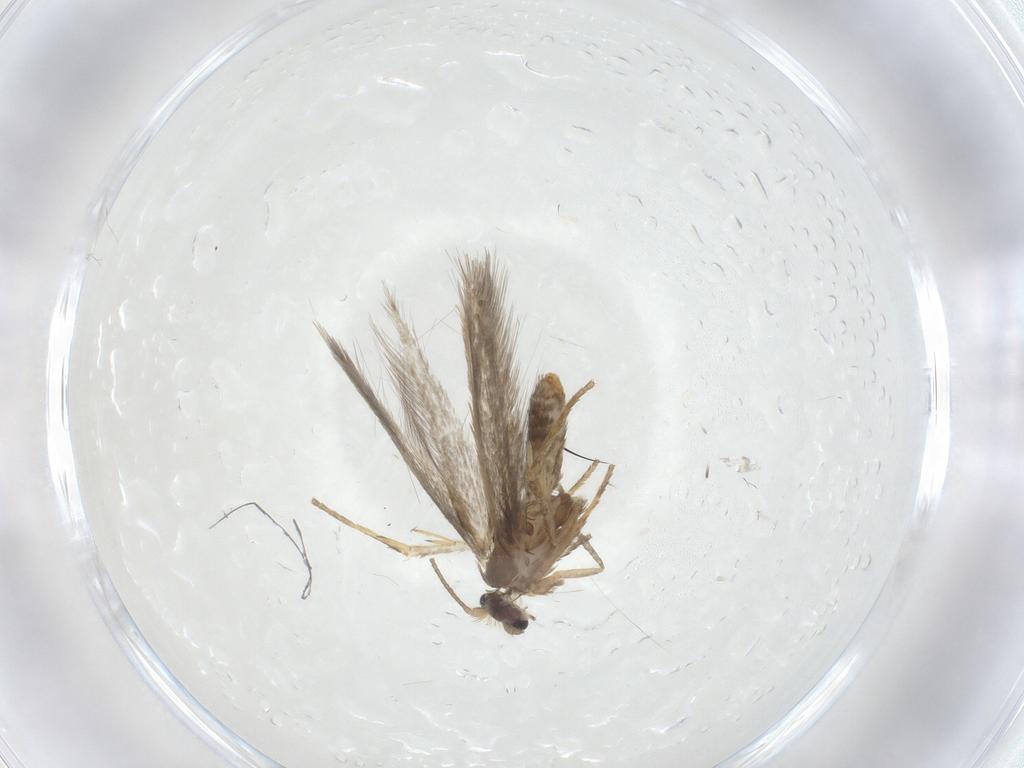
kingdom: Animalia
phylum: Arthropoda
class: Insecta
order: Lepidoptera
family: Nepticulidae
